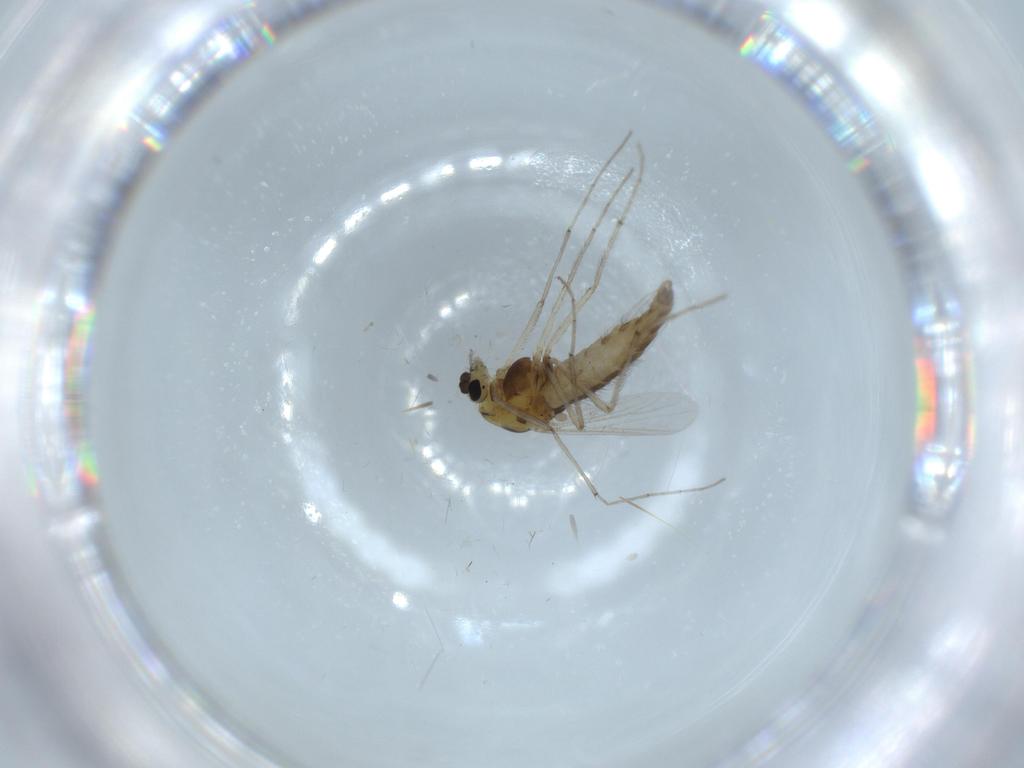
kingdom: Animalia
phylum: Arthropoda
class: Insecta
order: Diptera
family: Chironomidae
